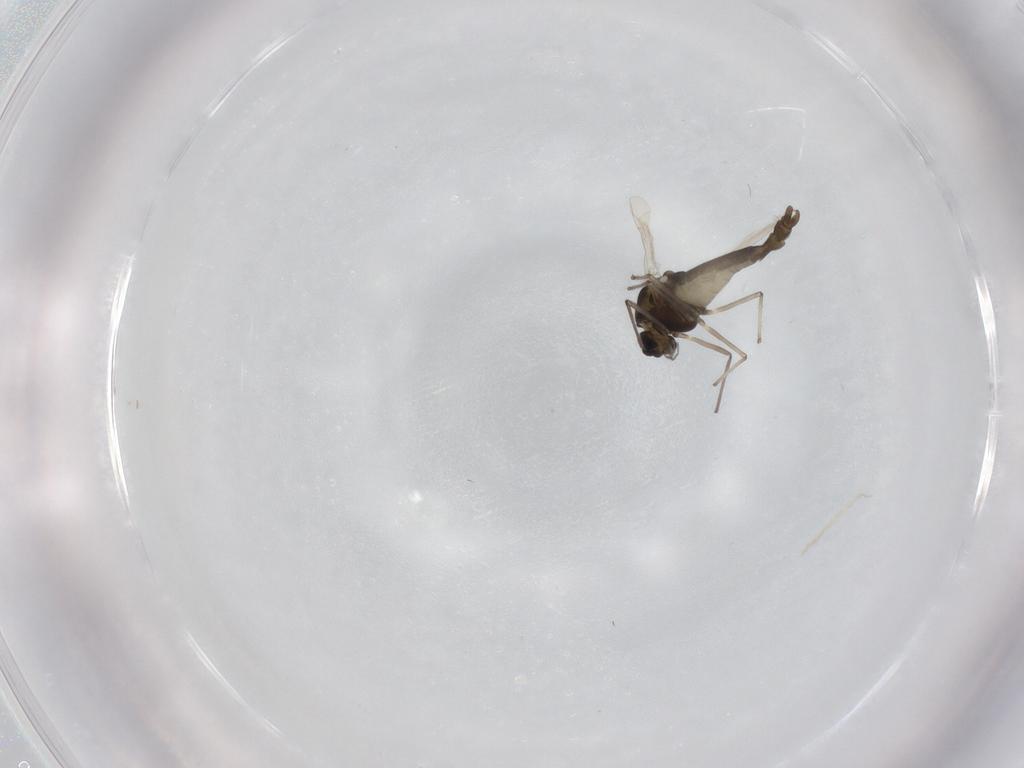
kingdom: Animalia
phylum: Arthropoda
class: Insecta
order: Diptera
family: Chironomidae
